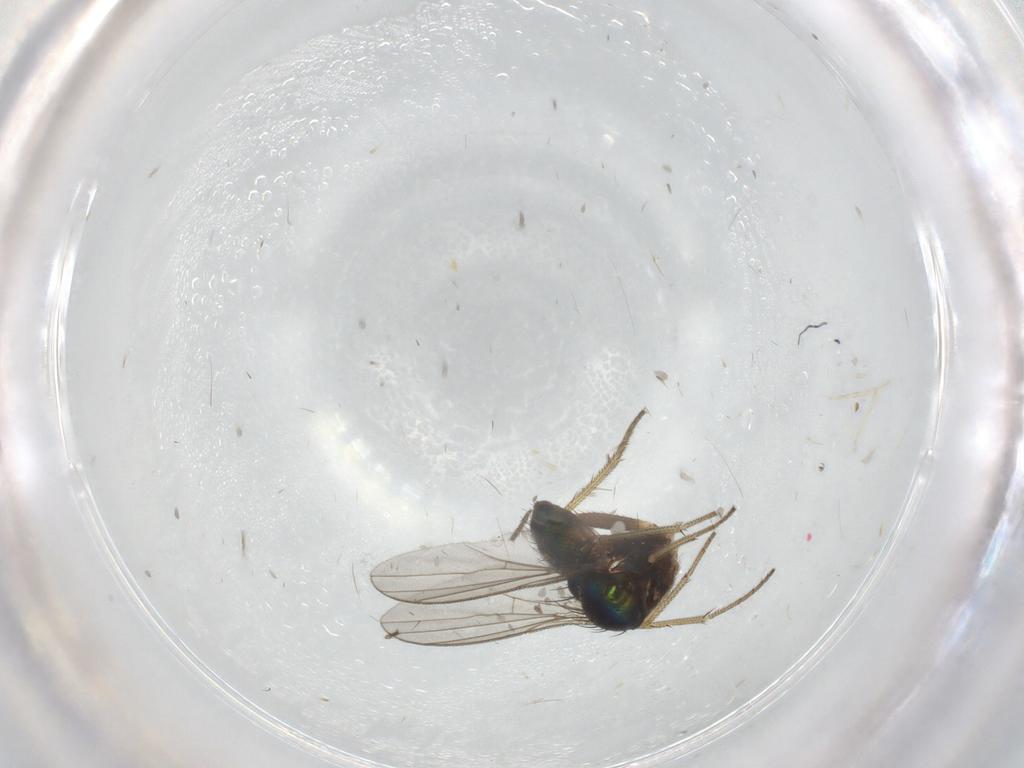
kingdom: Animalia
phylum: Arthropoda
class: Insecta
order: Diptera
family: Dolichopodidae
